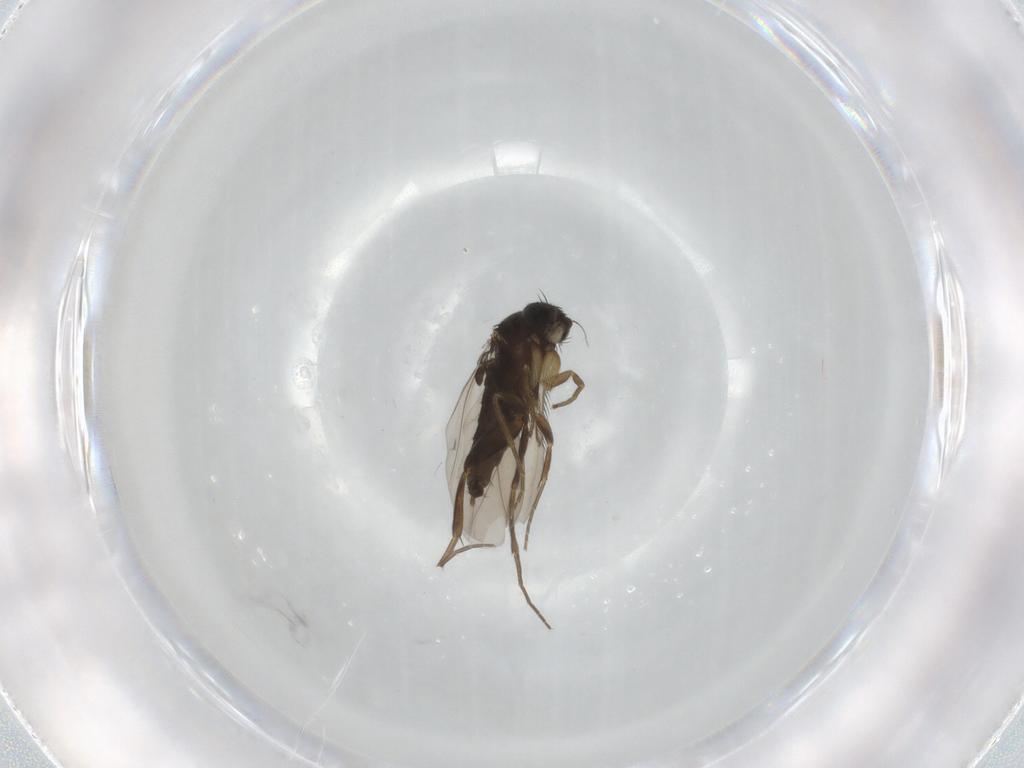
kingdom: Animalia
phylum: Arthropoda
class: Insecta
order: Diptera
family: Phoridae
